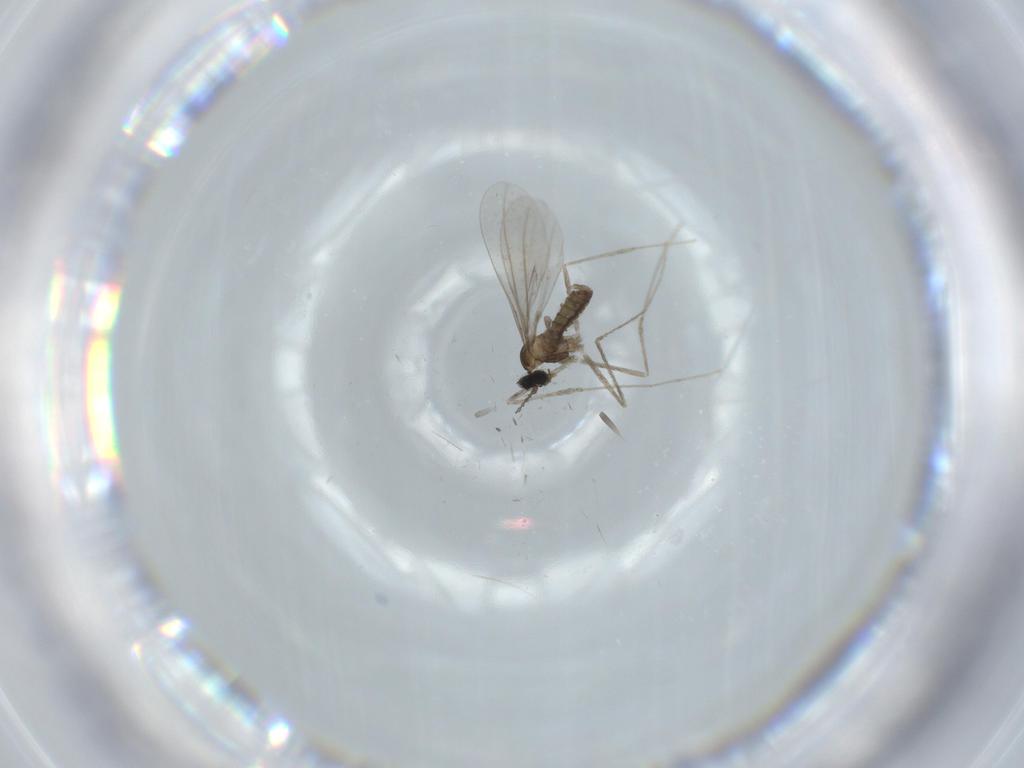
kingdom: Animalia
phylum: Arthropoda
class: Insecta
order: Diptera
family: Cecidomyiidae
